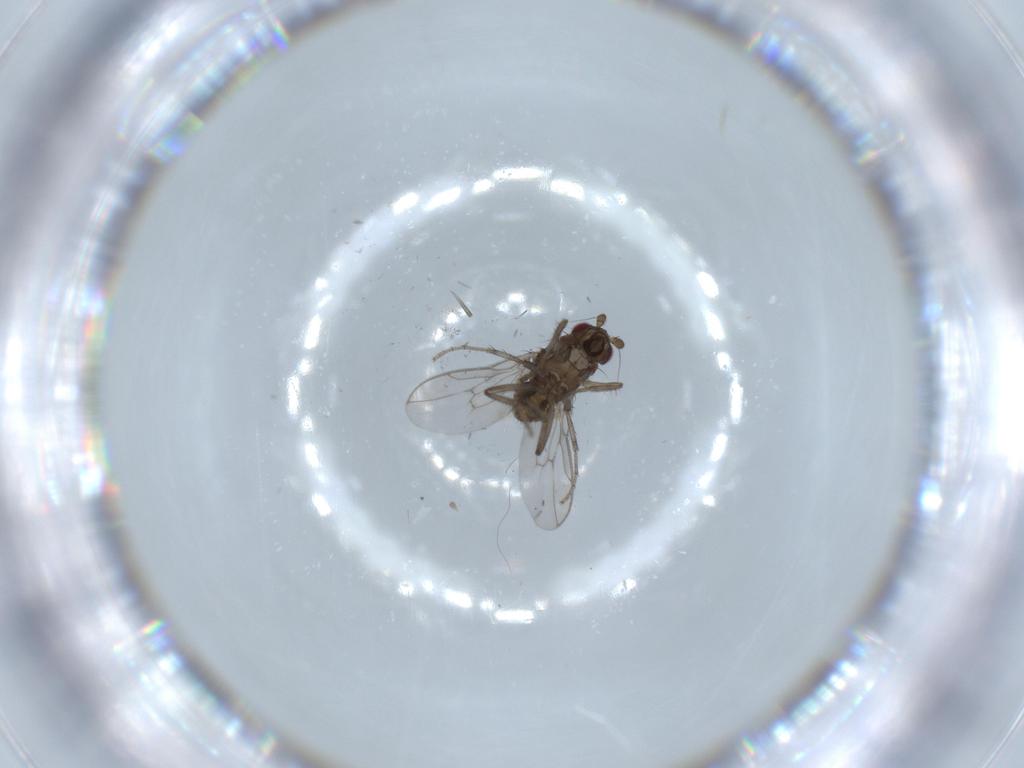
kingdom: Animalia
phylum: Arthropoda
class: Insecta
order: Diptera
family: Sphaeroceridae
